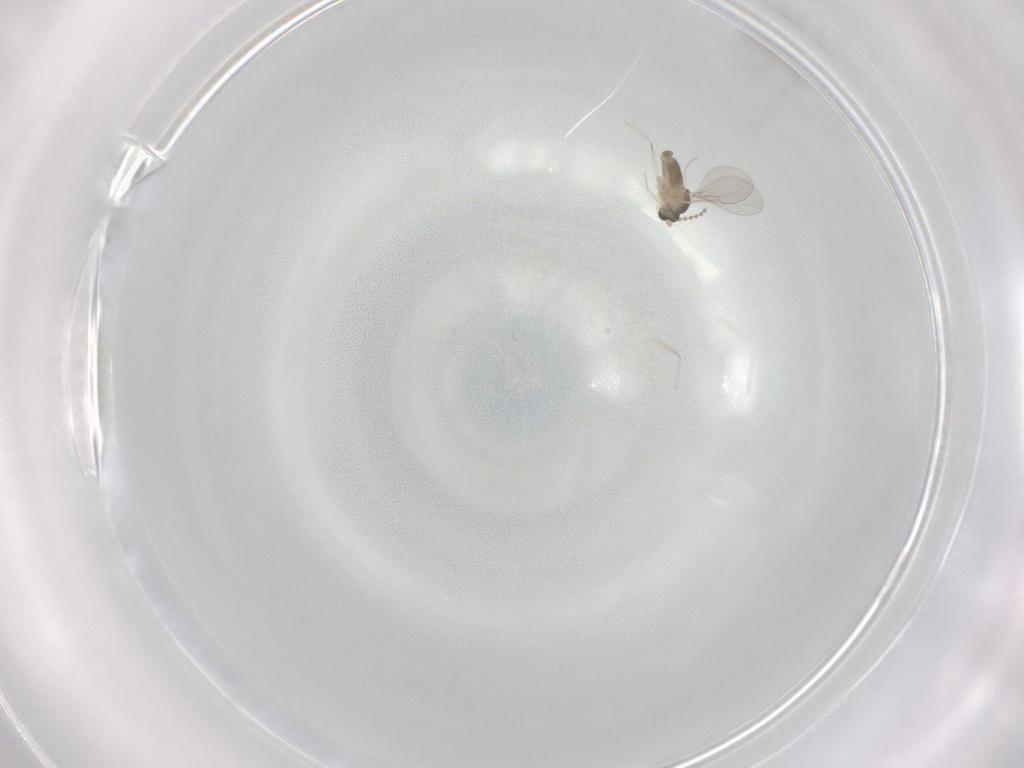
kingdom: Animalia
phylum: Arthropoda
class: Insecta
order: Diptera
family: Cecidomyiidae
